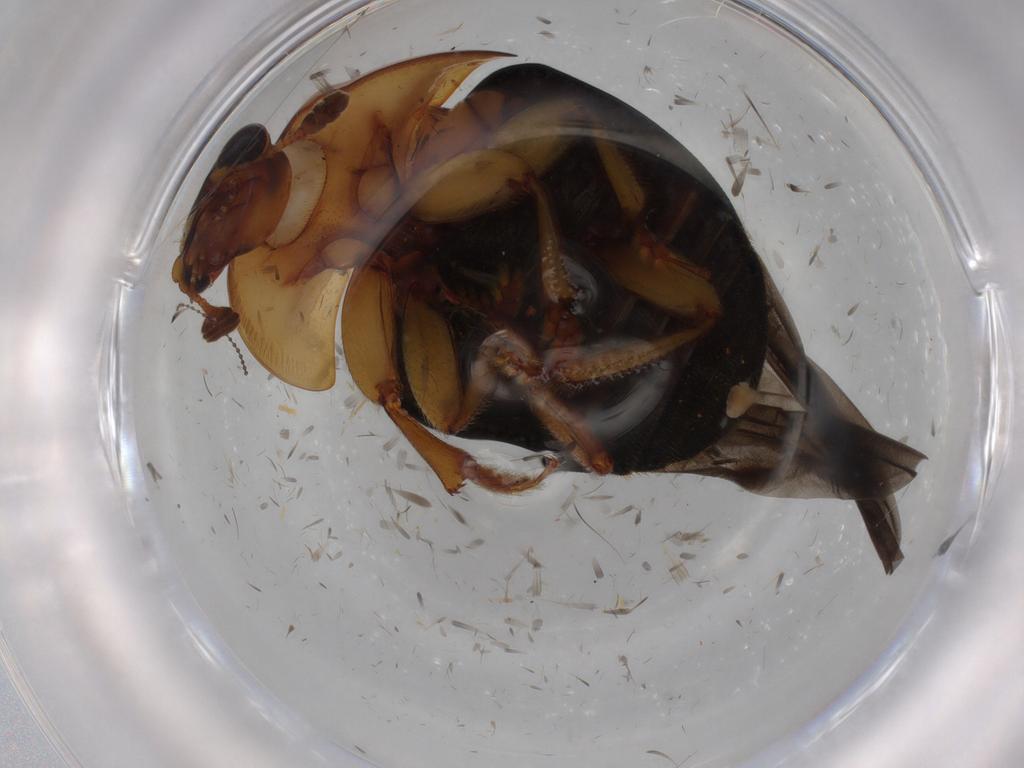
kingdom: Animalia
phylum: Arthropoda
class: Insecta
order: Coleoptera
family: Nitidulidae
